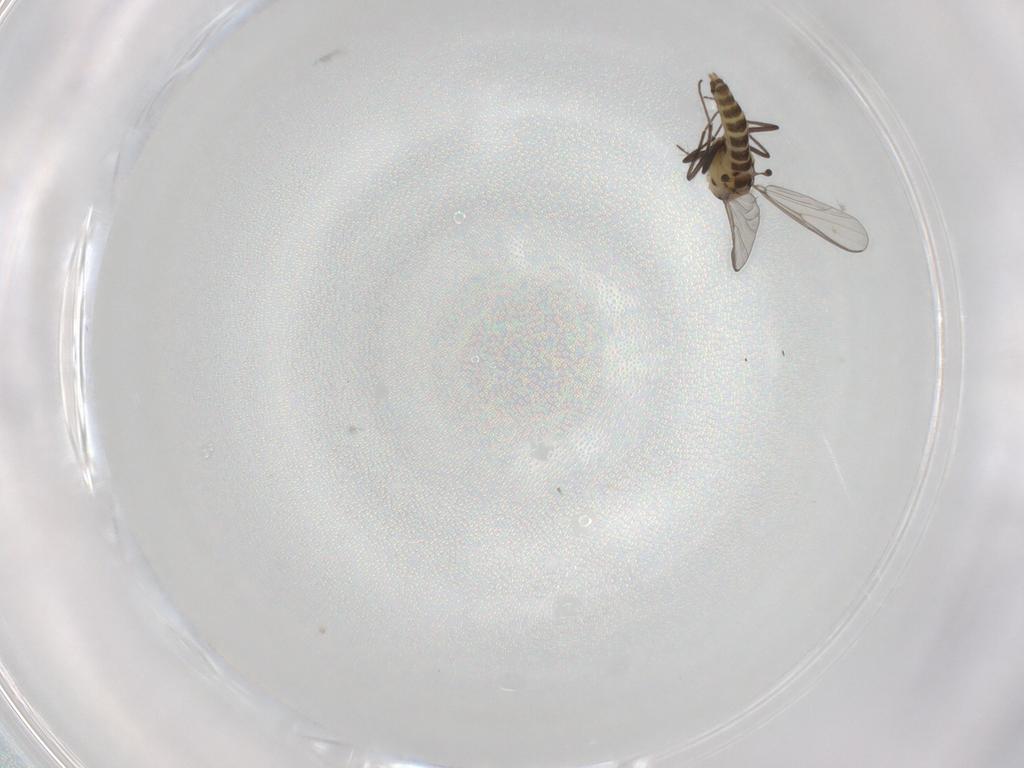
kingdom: Animalia
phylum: Arthropoda
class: Insecta
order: Diptera
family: Chironomidae
